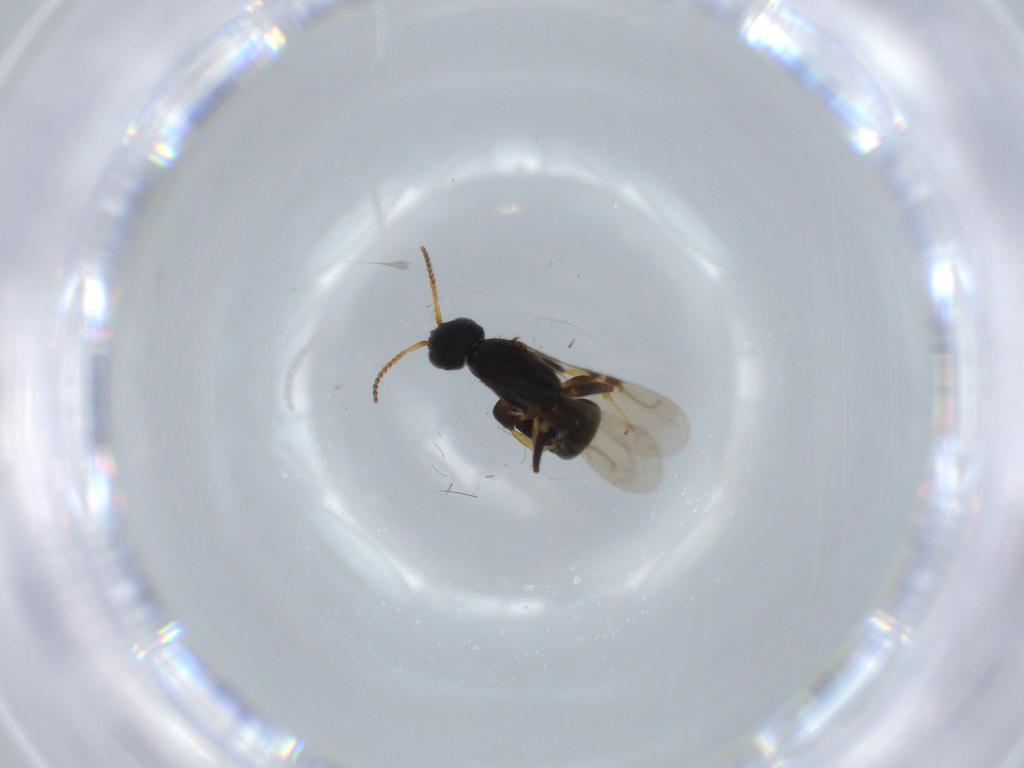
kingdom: Animalia
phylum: Arthropoda
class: Insecta
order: Hymenoptera
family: Bethylidae
